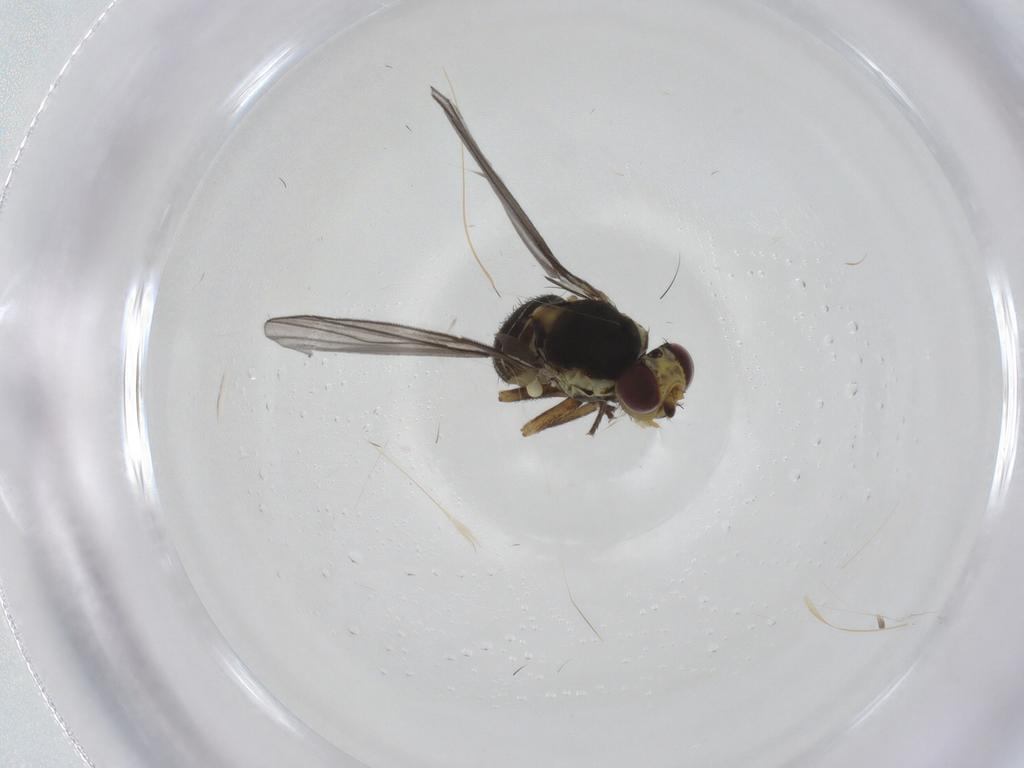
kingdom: Animalia
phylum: Arthropoda
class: Insecta
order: Diptera
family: Agromyzidae
